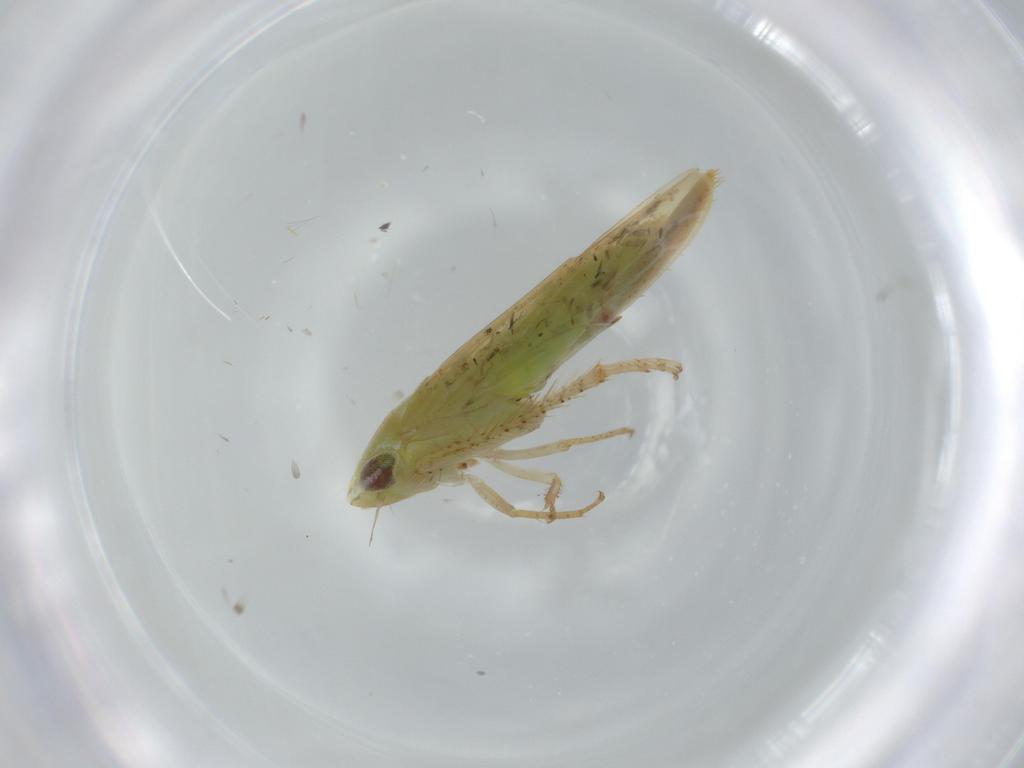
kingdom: Animalia
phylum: Arthropoda
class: Insecta
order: Hemiptera
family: Cicadellidae
